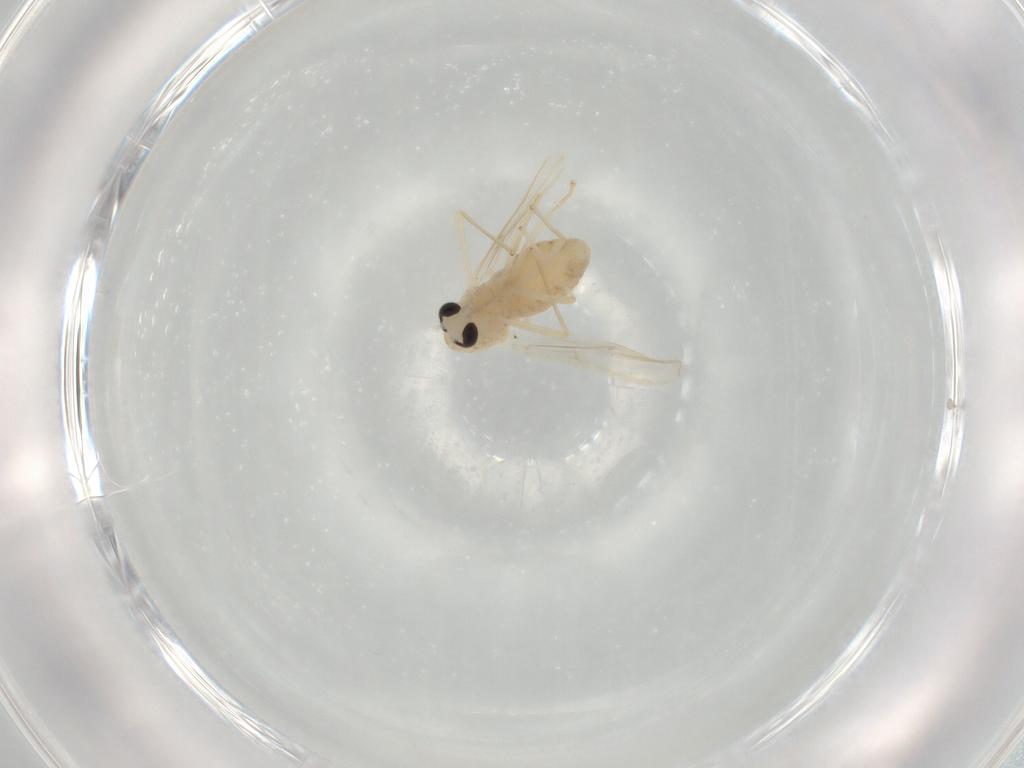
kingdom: Animalia
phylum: Arthropoda
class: Insecta
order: Diptera
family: Chironomidae
